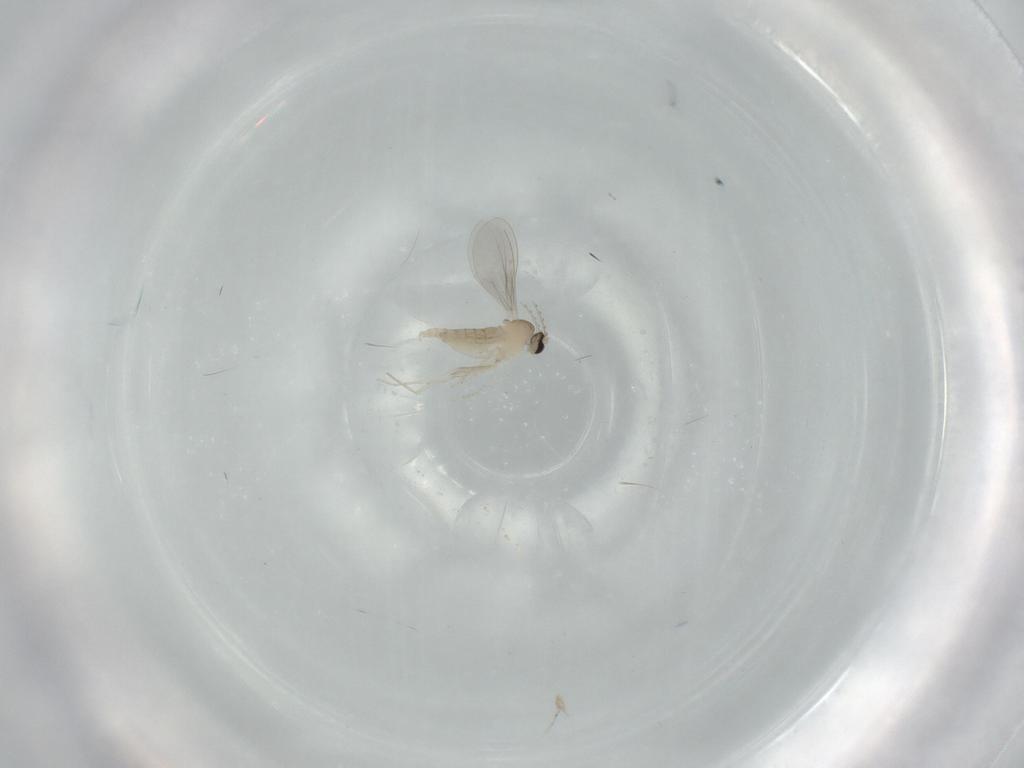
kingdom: Animalia
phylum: Arthropoda
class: Insecta
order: Diptera
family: Cecidomyiidae
